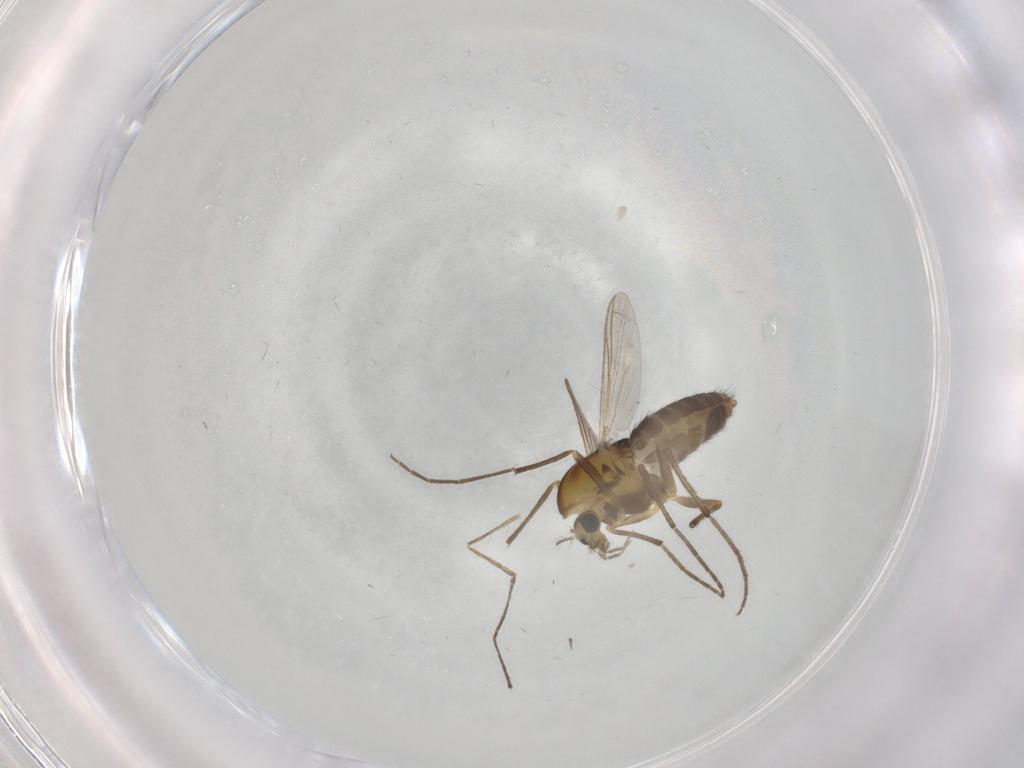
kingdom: Animalia
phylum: Arthropoda
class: Insecta
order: Diptera
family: Chironomidae
